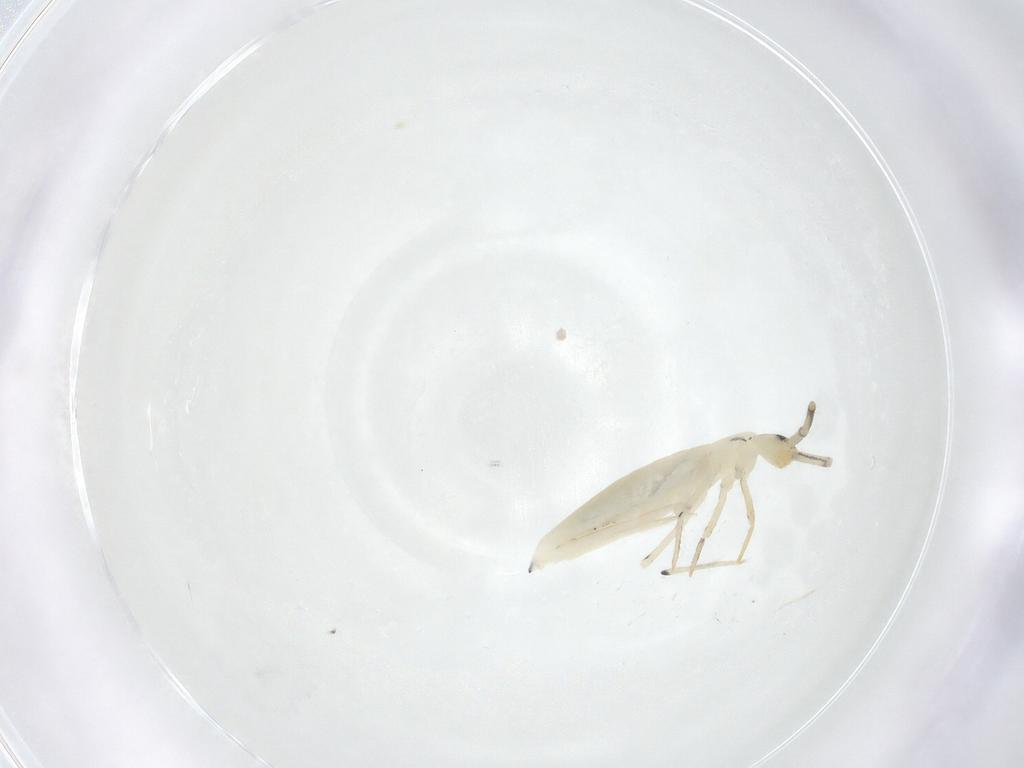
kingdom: Animalia
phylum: Arthropoda
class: Collembola
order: Entomobryomorpha
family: Entomobryidae
